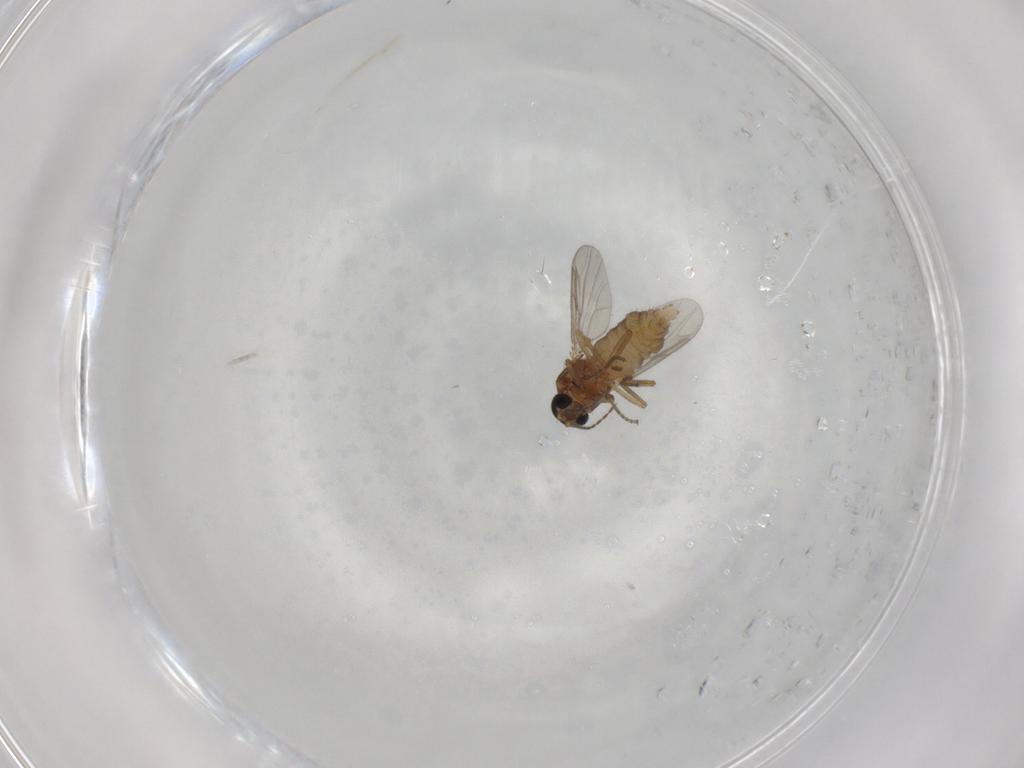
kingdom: Animalia
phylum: Arthropoda
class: Insecta
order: Diptera
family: Ceratopogonidae
